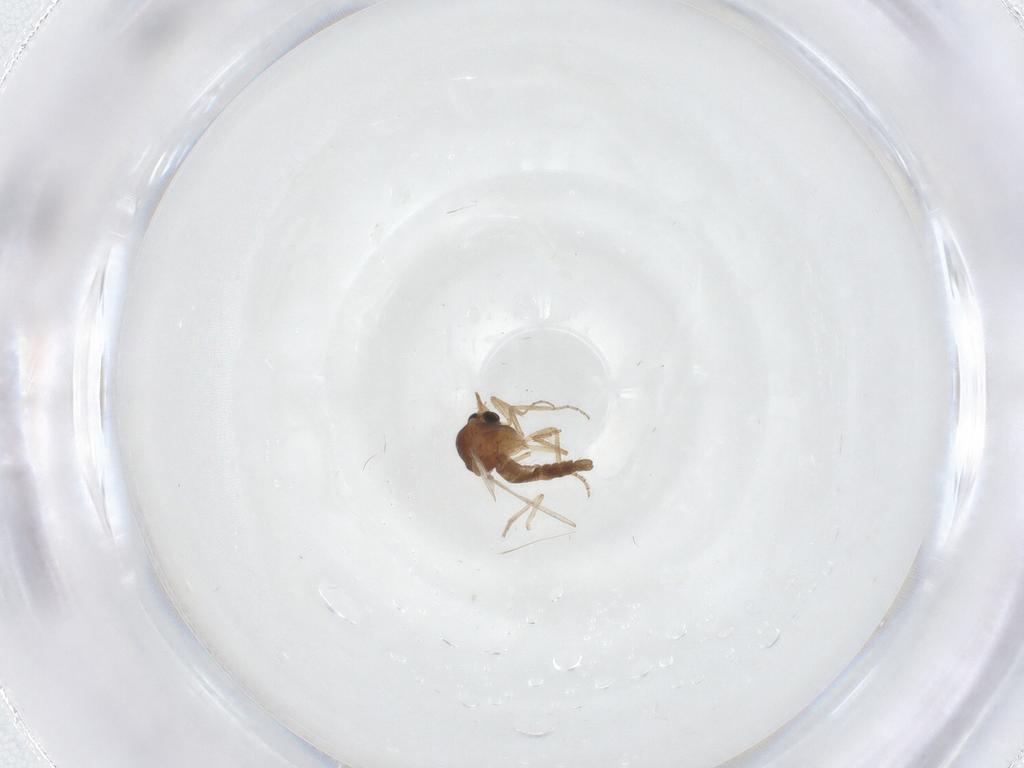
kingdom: Animalia
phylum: Arthropoda
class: Insecta
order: Diptera
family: Ceratopogonidae
